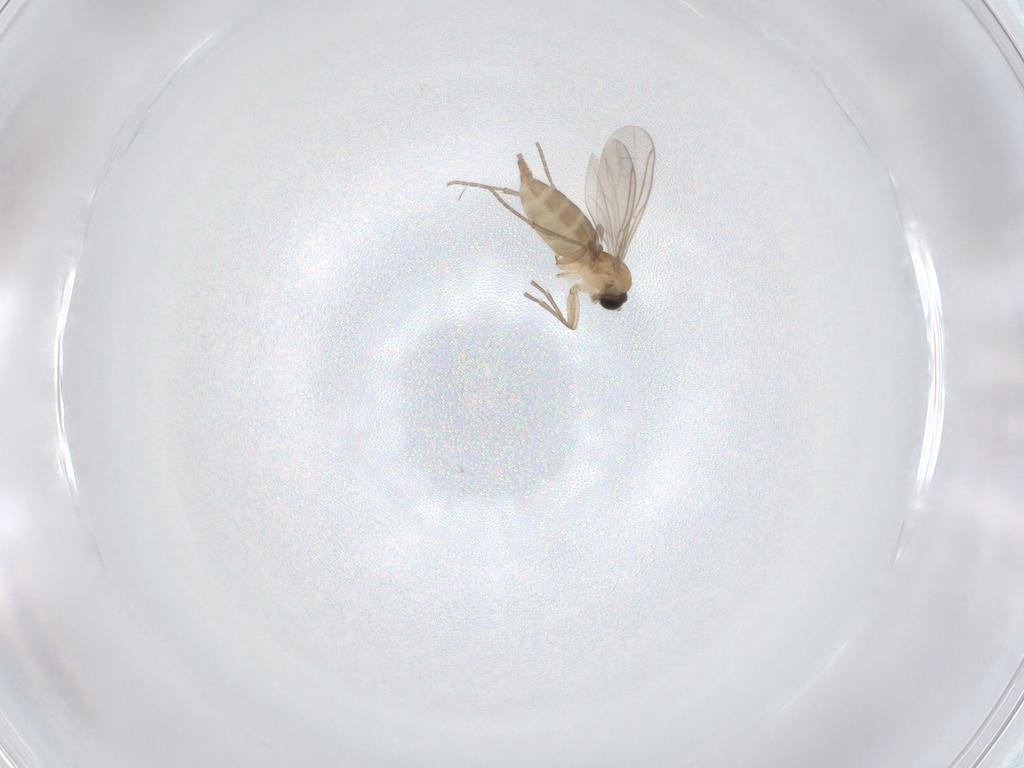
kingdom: Animalia
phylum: Arthropoda
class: Insecta
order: Diptera
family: Sciaridae
